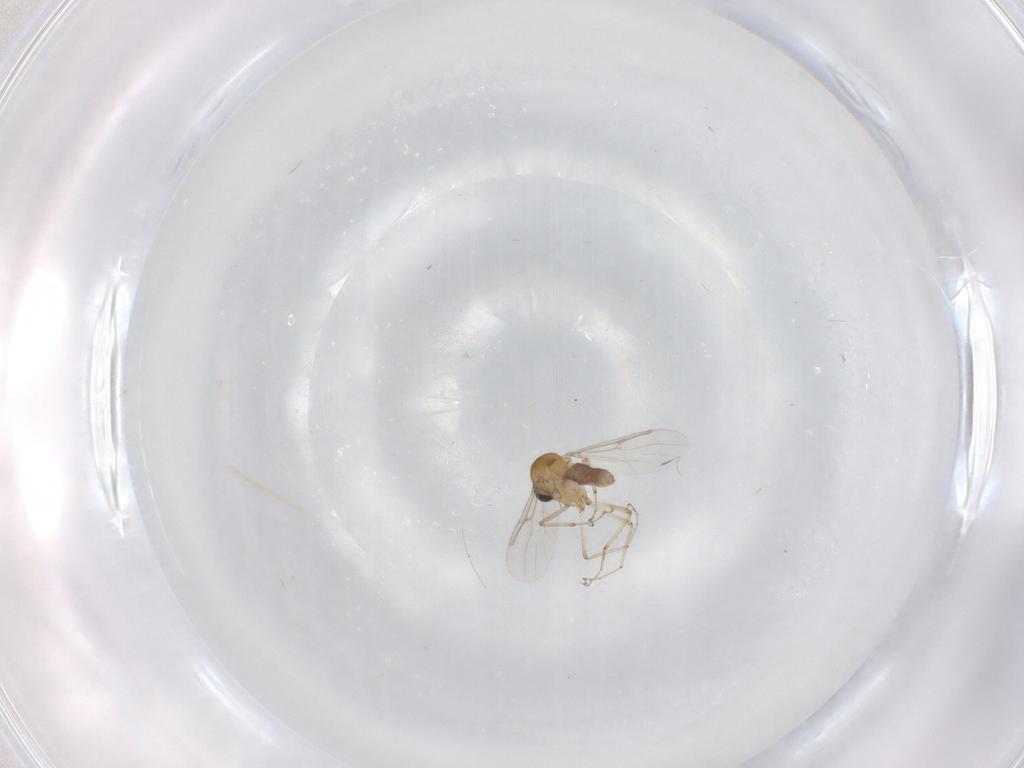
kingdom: Animalia
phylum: Arthropoda
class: Insecta
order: Diptera
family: Ceratopogonidae
